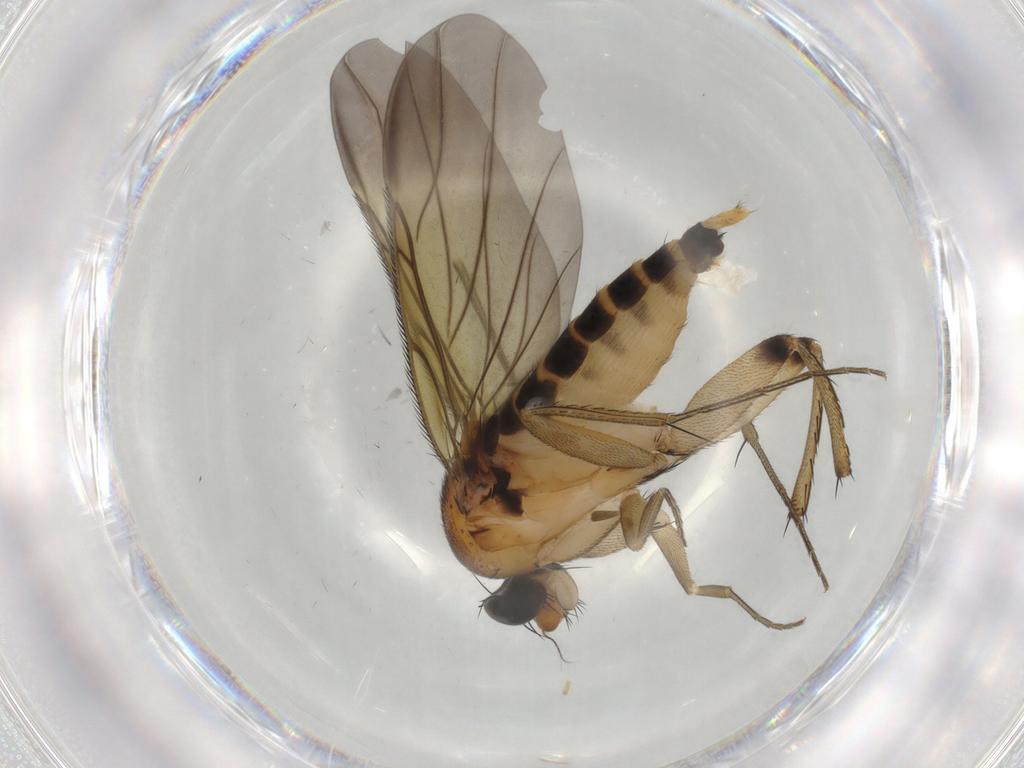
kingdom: Animalia
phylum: Arthropoda
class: Insecta
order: Diptera
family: Phoridae
